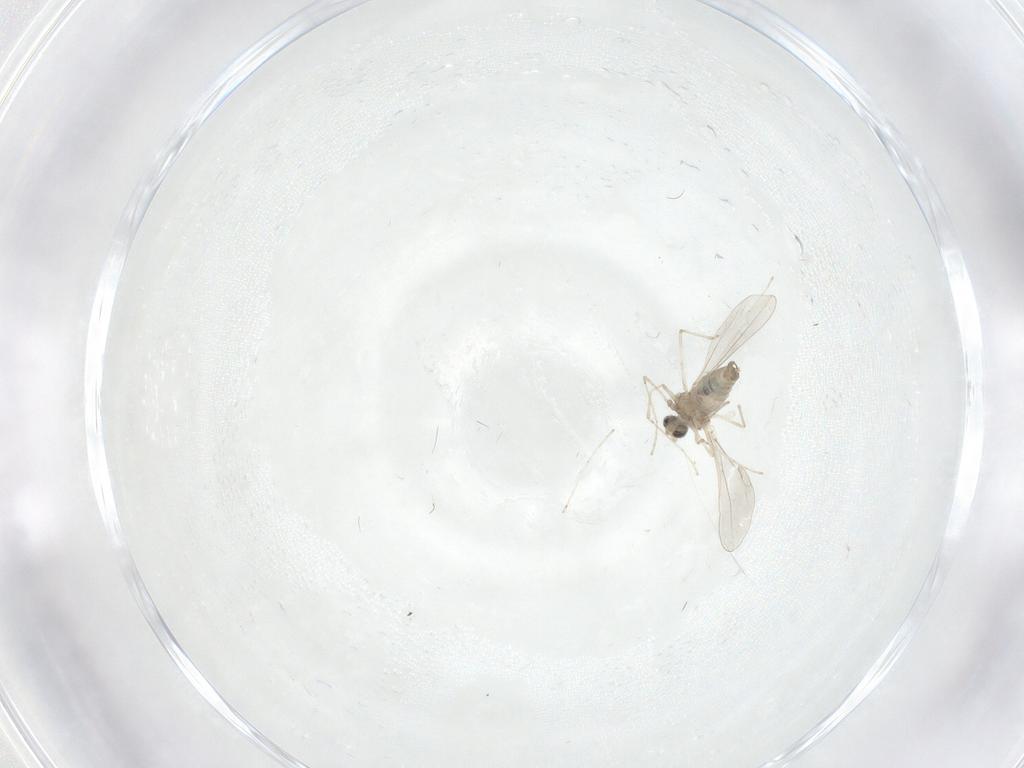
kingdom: Animalia
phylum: Arthropoda
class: Insecta
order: Diptera
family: Cecidomyiidae
